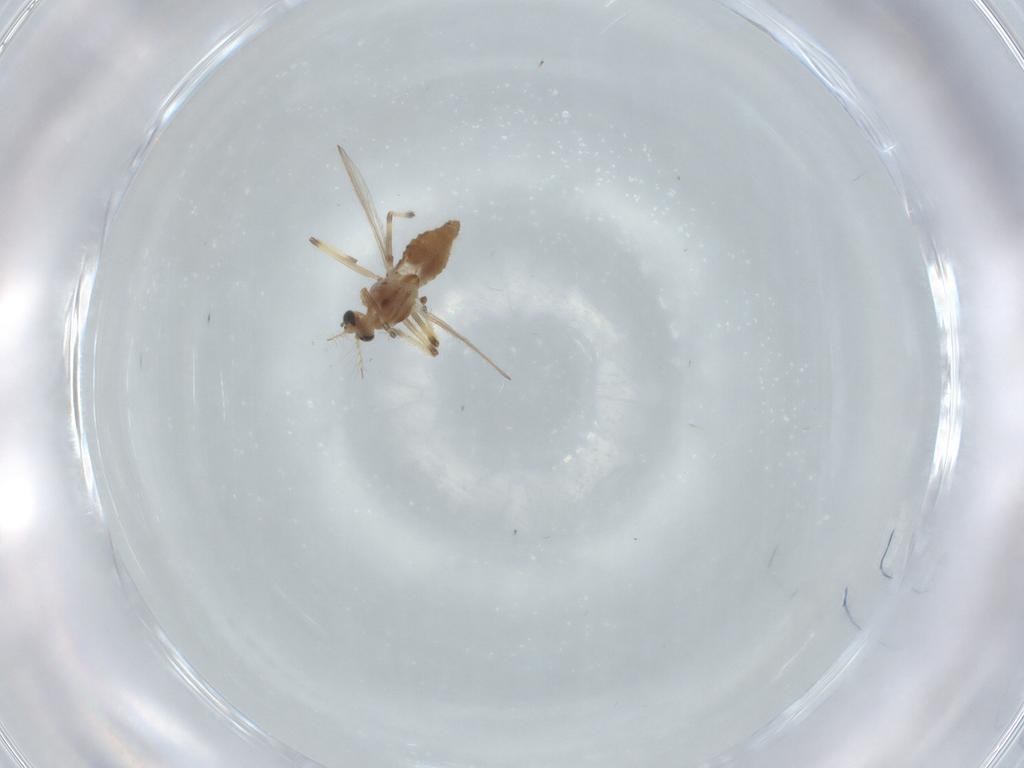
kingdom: Animalia
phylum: Arthropoda
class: Insecta
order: Diptera
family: Chironomidae
